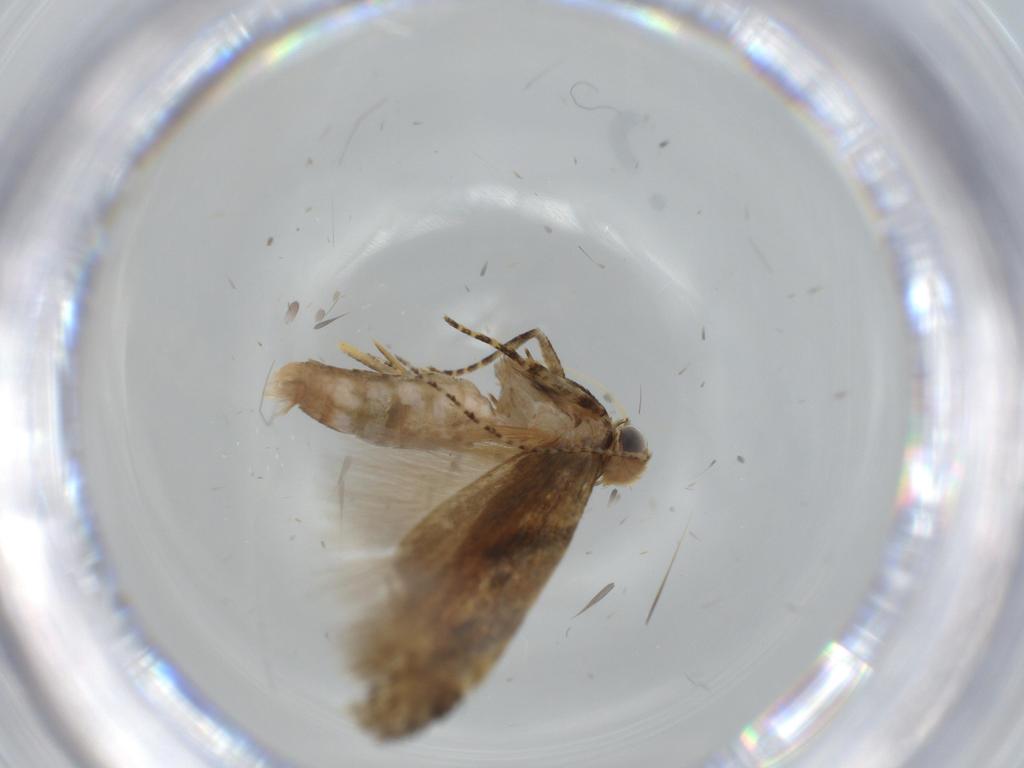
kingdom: Animalia
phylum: Arthropoda
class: Insecta
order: Lepidoptera
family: Gelechiidae
